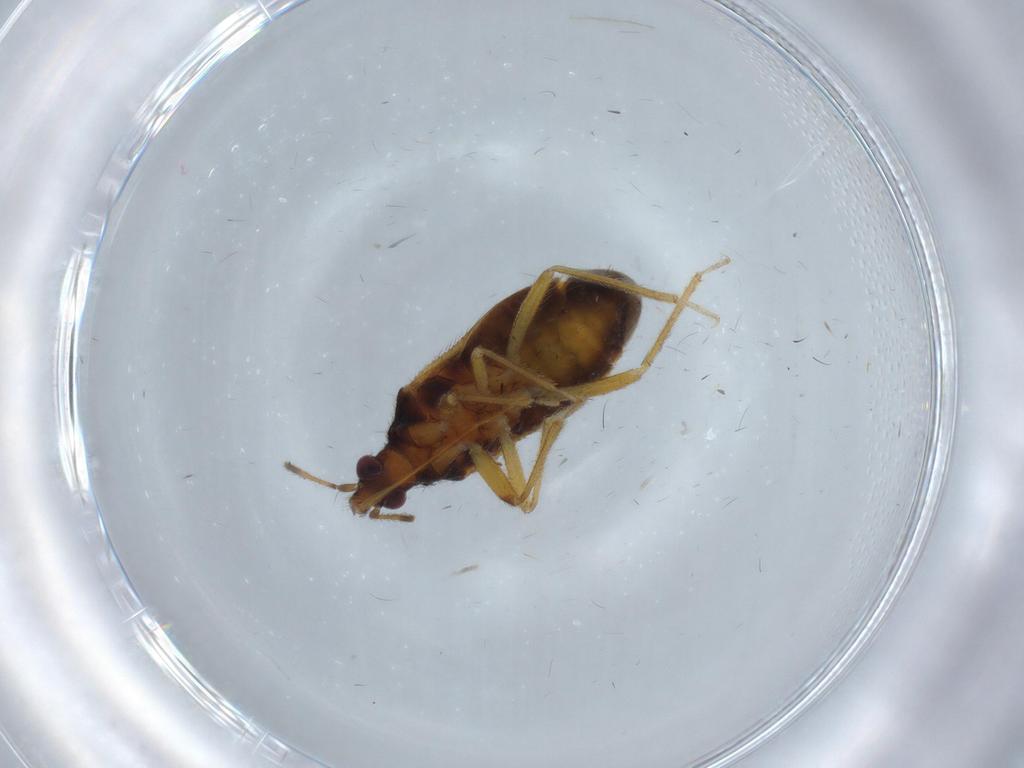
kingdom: Animalia
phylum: Arthropoda
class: Insecta
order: Hemiptera
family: Anthocoridae
